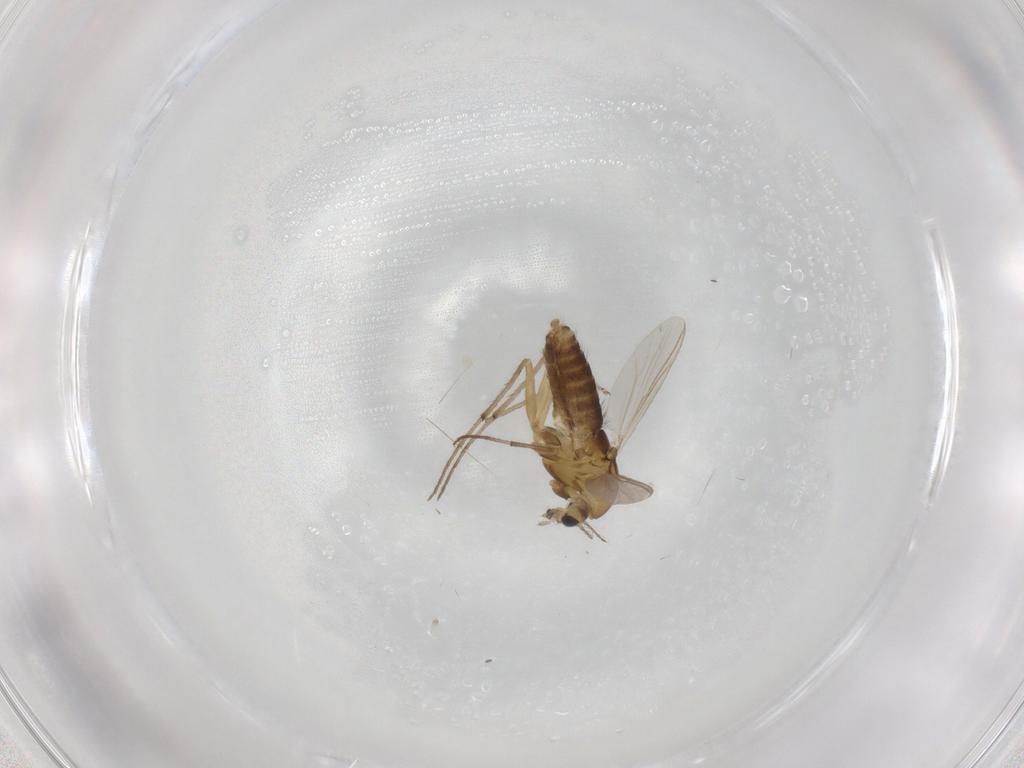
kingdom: Animalia
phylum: Arthropoda
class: Insecta
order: Diptera
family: Chironomidae
